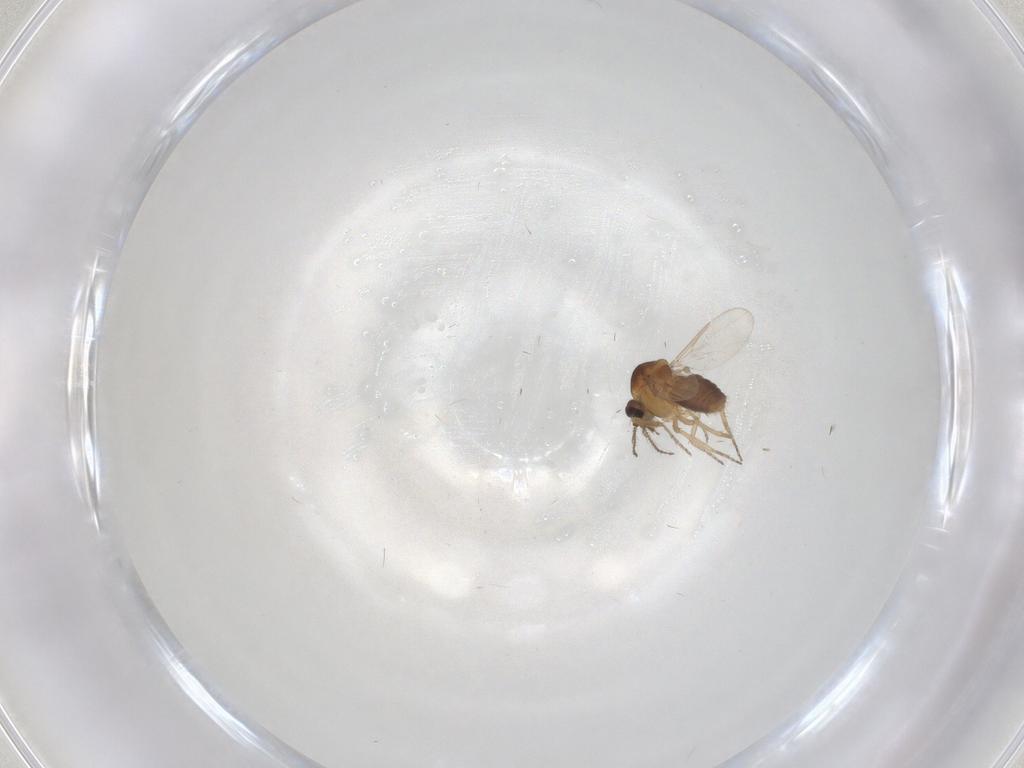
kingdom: Animalia
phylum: Arthropoda
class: Insecta
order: Diptera
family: Ceratopogonidae
